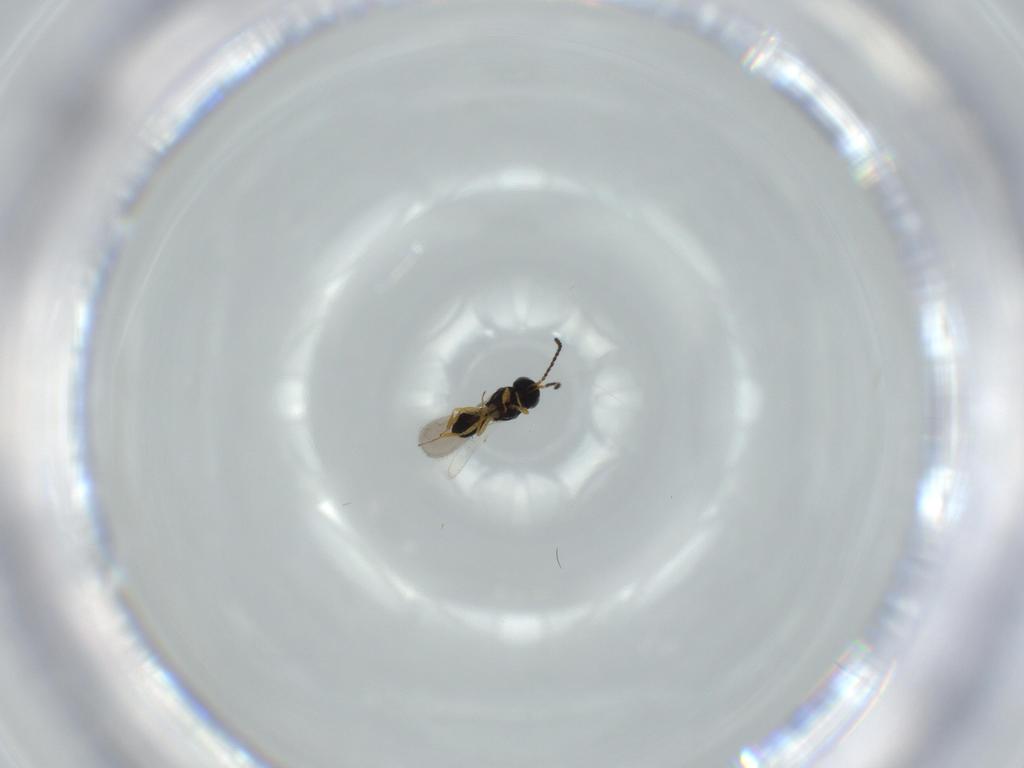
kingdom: Animalia
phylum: Arthropoda
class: Insecta
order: Hymenoptera
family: Scelionidae
